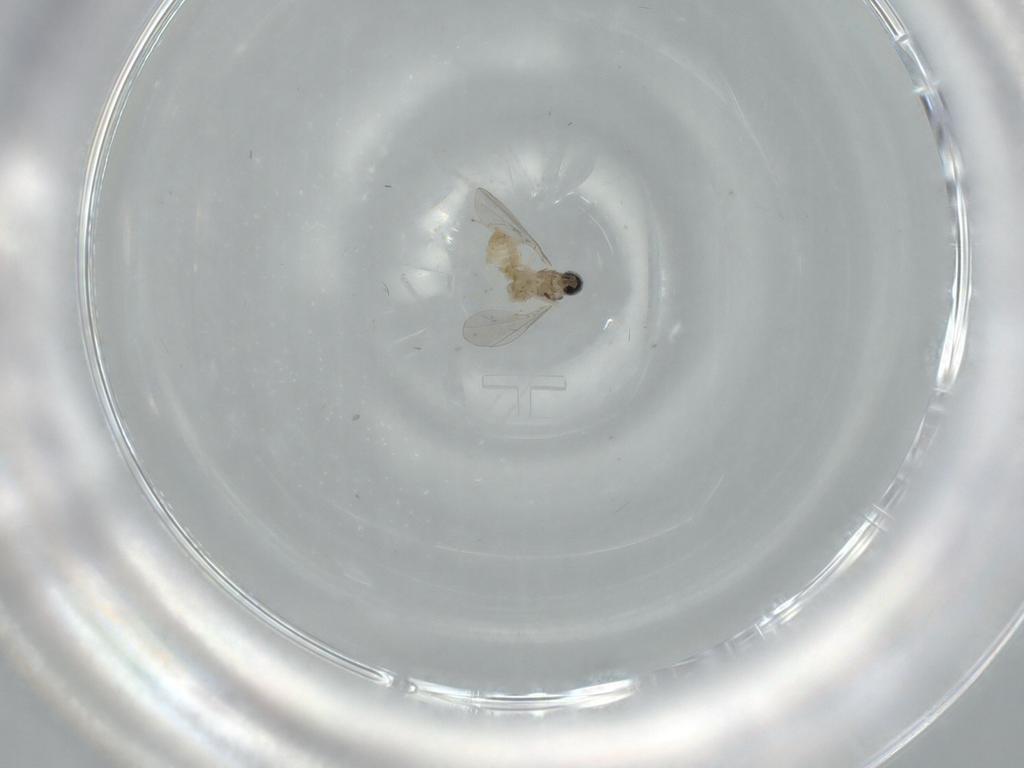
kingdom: Animalia
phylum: Arthropoda
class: Insecta
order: Diptera
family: Cecidomyiidae
